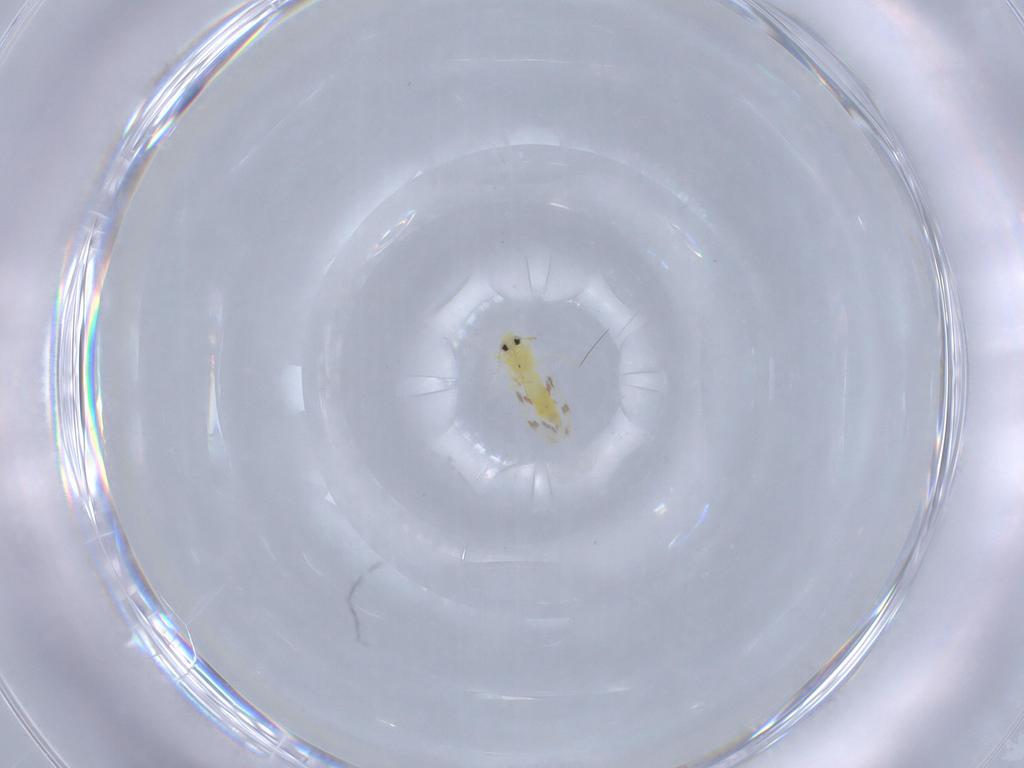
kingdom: Animalia
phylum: Arthropoda
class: Insecta
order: Hemiptera
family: Aleyrodidae
